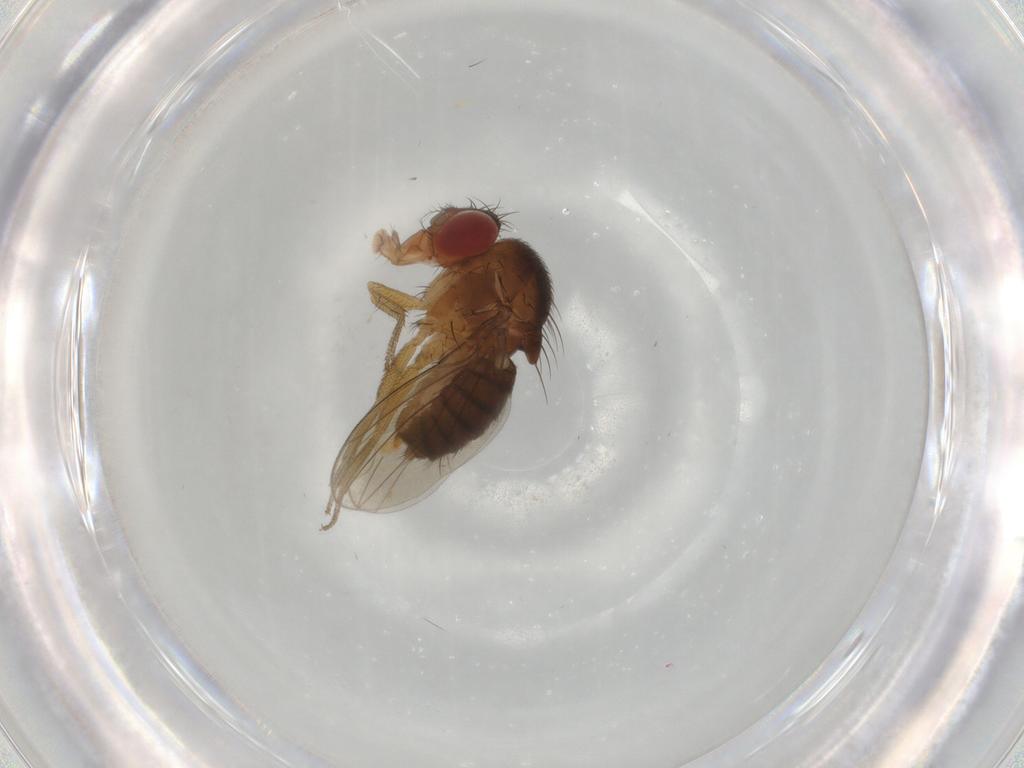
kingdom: Animalia
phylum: Arthropoda
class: Insecta
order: Diptera
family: Drosophilidae
